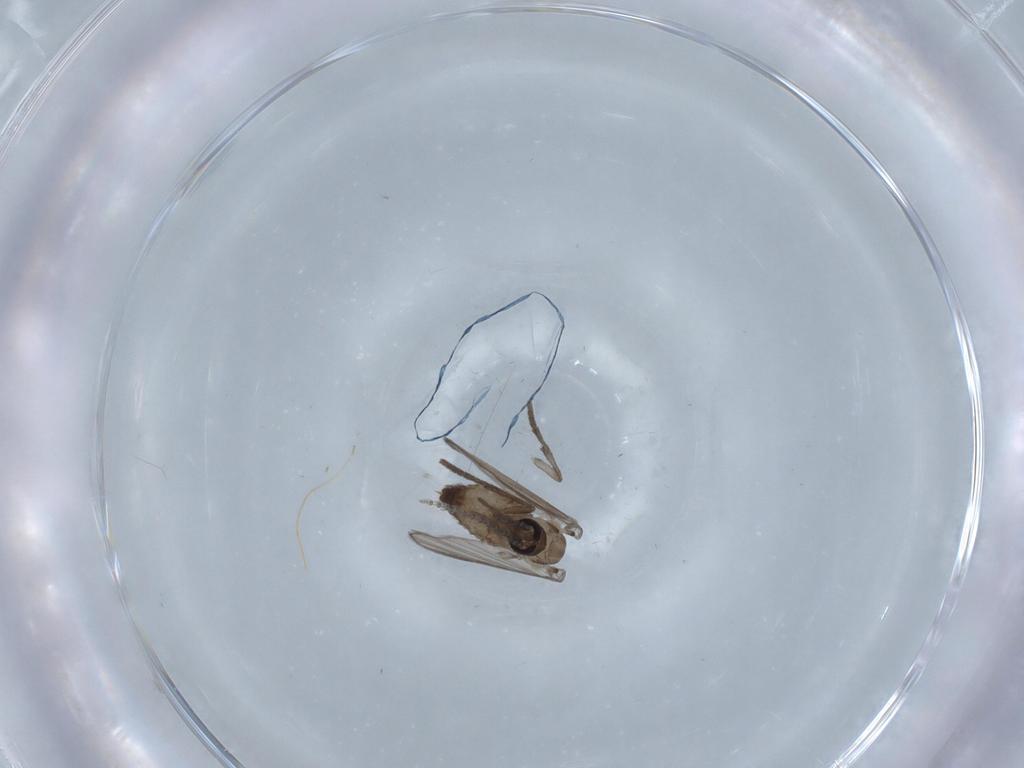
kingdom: Animalia
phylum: Arthropoda
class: Insecta
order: Diptera
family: Psychodidae
